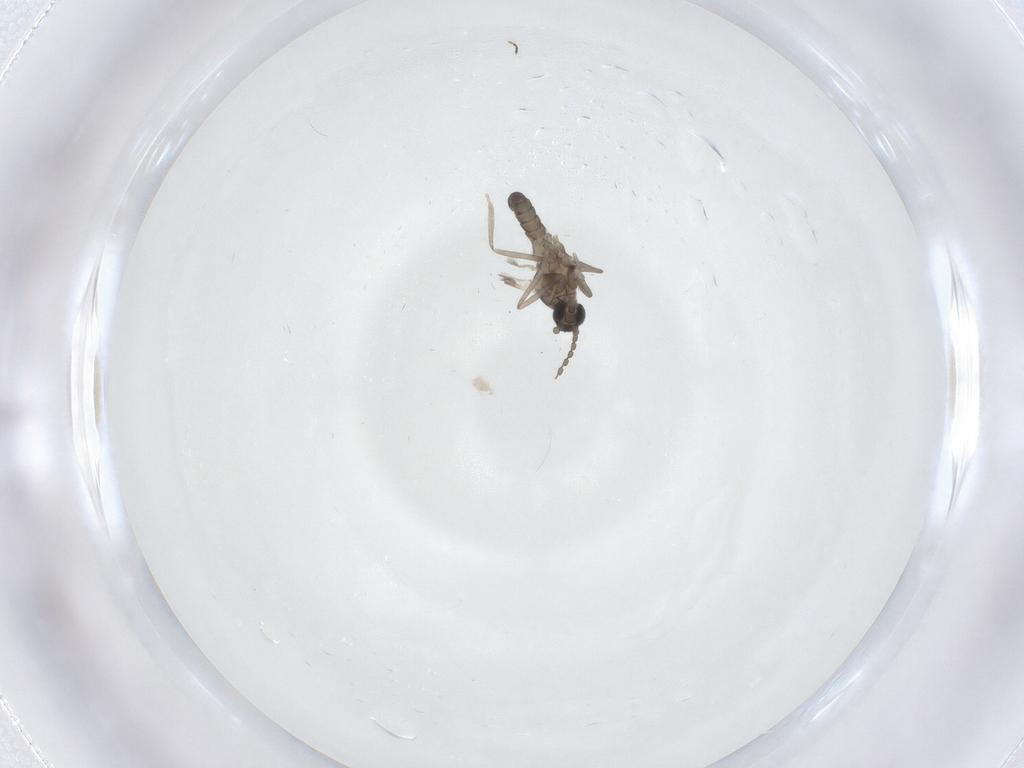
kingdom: Animalia
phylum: Arthropoda
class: Insecta
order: Diptera
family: Cecidomyiidae
